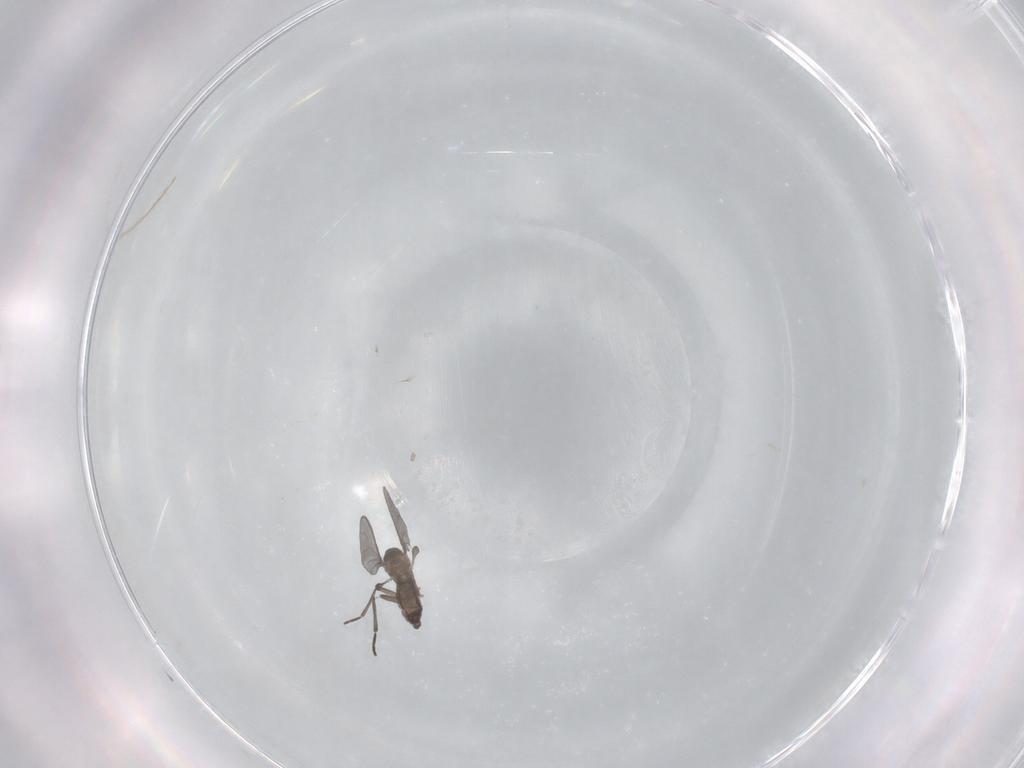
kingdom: Animalia
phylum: Arthropoda
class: Insecta
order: Diptera
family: Sciaridae
